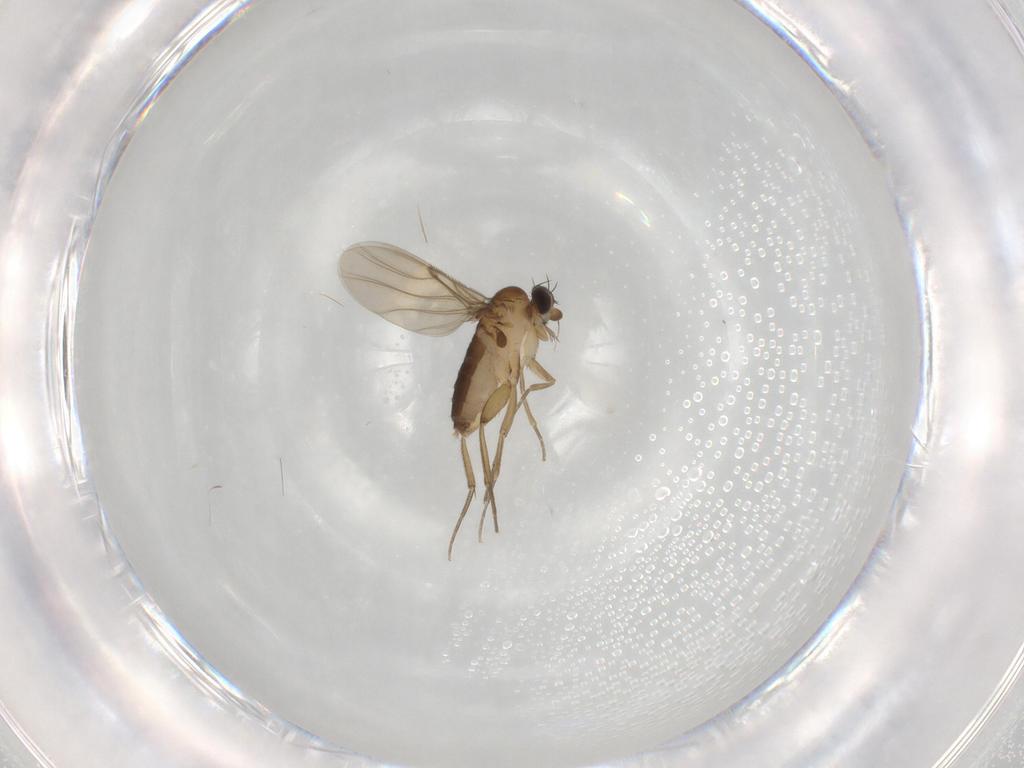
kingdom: Animalia
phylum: Arthropoda
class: Insecta
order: Diptera
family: Phoridae
